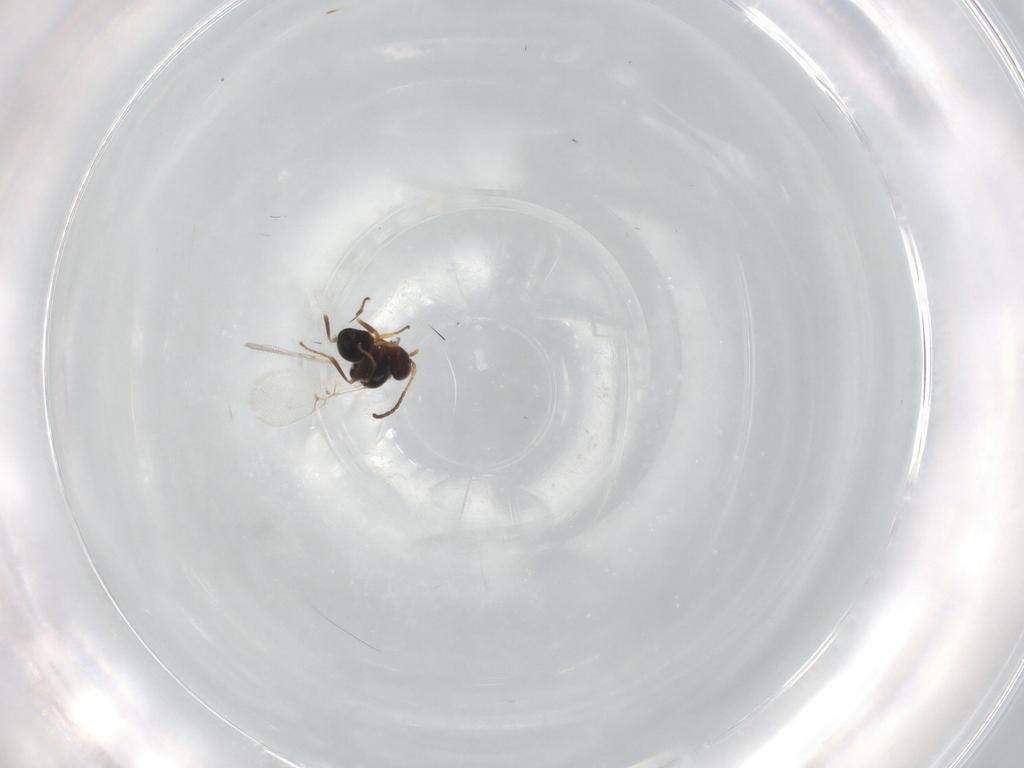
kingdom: Animalia
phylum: Arthropoda
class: Insecta
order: Hymenoptera
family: Figitidae
